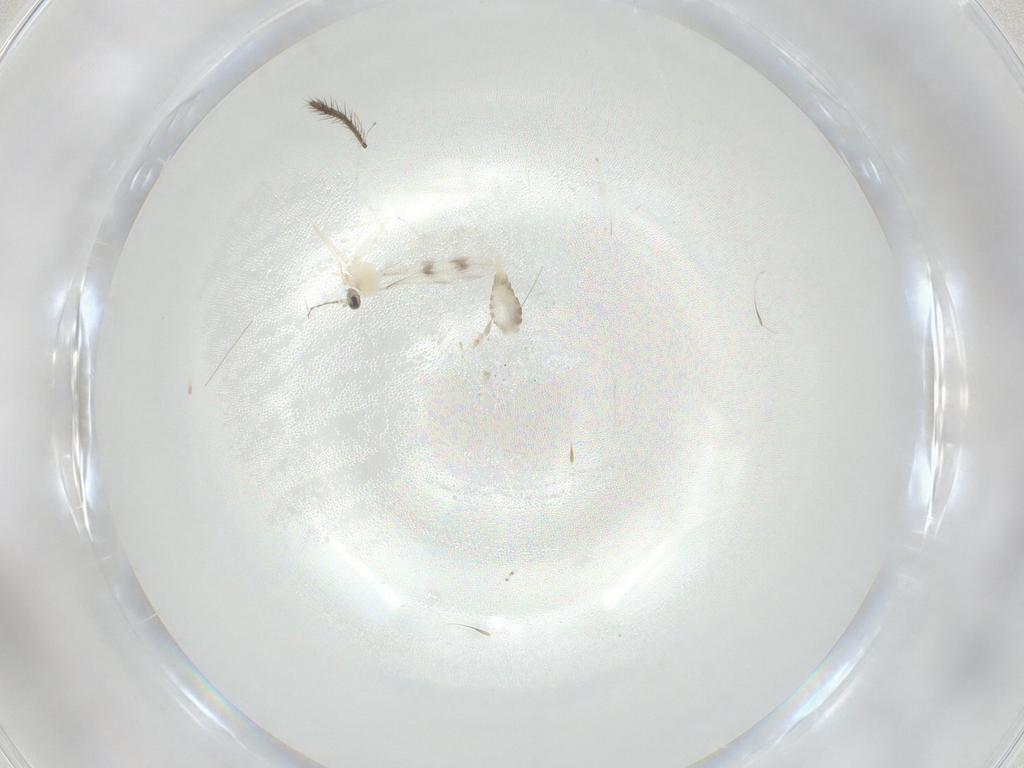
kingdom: Animalia
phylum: Arthropoda
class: Insecta
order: Diptera
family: Cecidomyiidae
